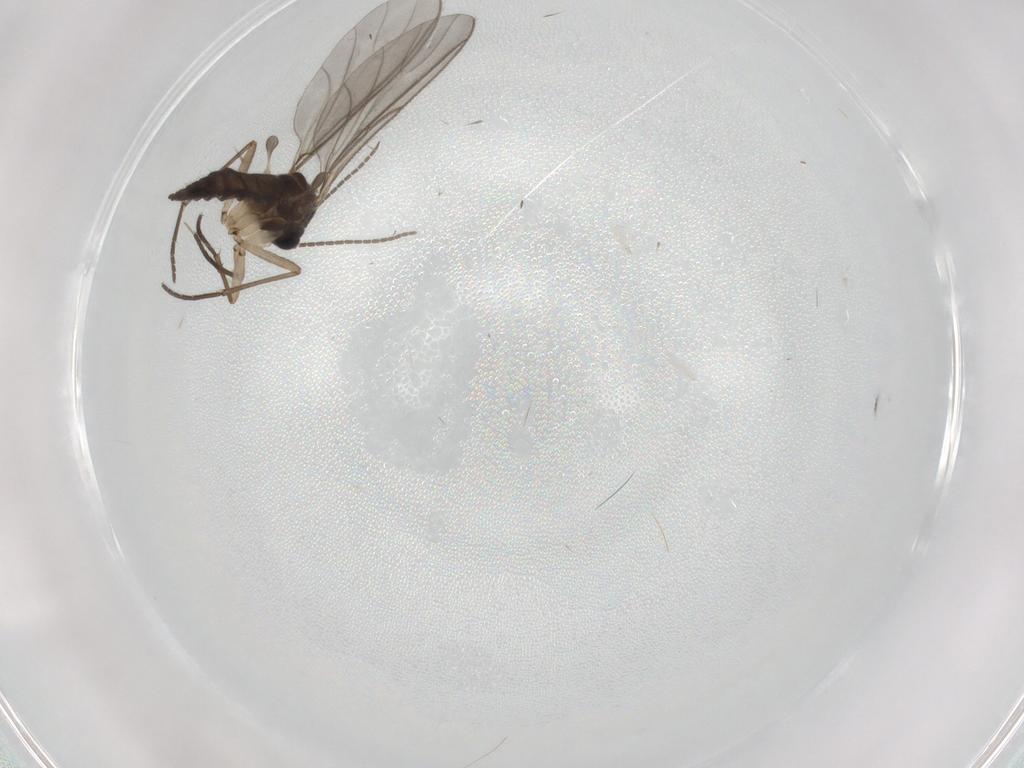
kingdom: Animalia
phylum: Arthropoda
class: Insecta
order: Diptera
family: Sciaridae
